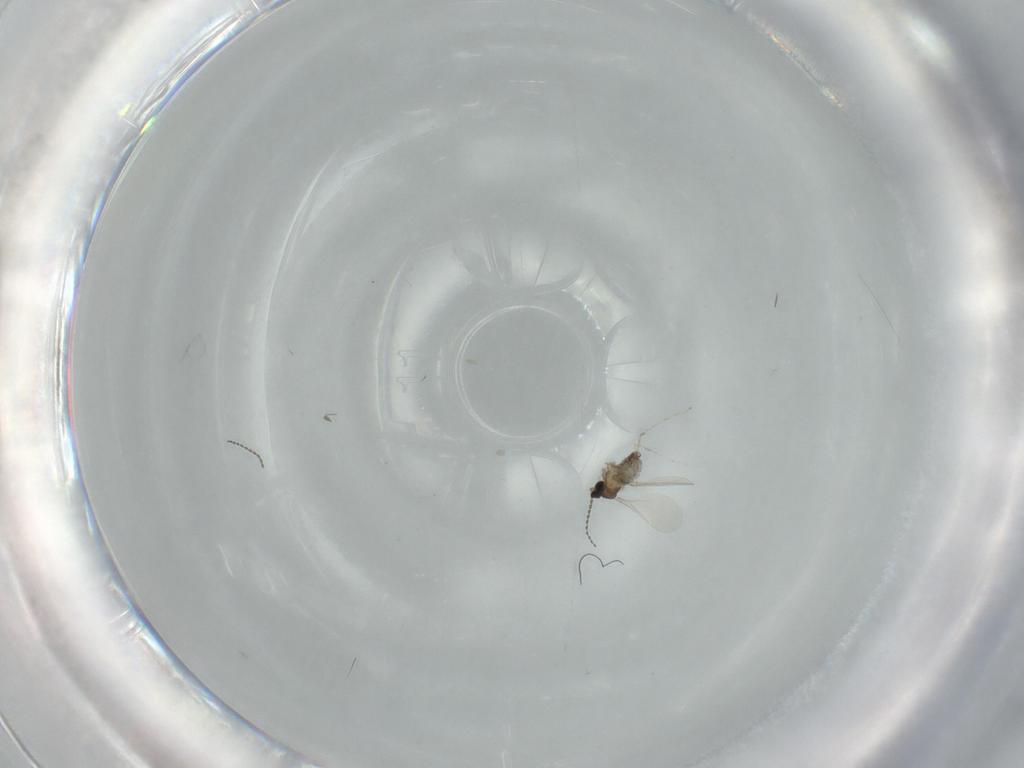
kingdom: Animalia
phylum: Arthropoda
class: Insecta
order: Diptera
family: Cecidomyiidae
